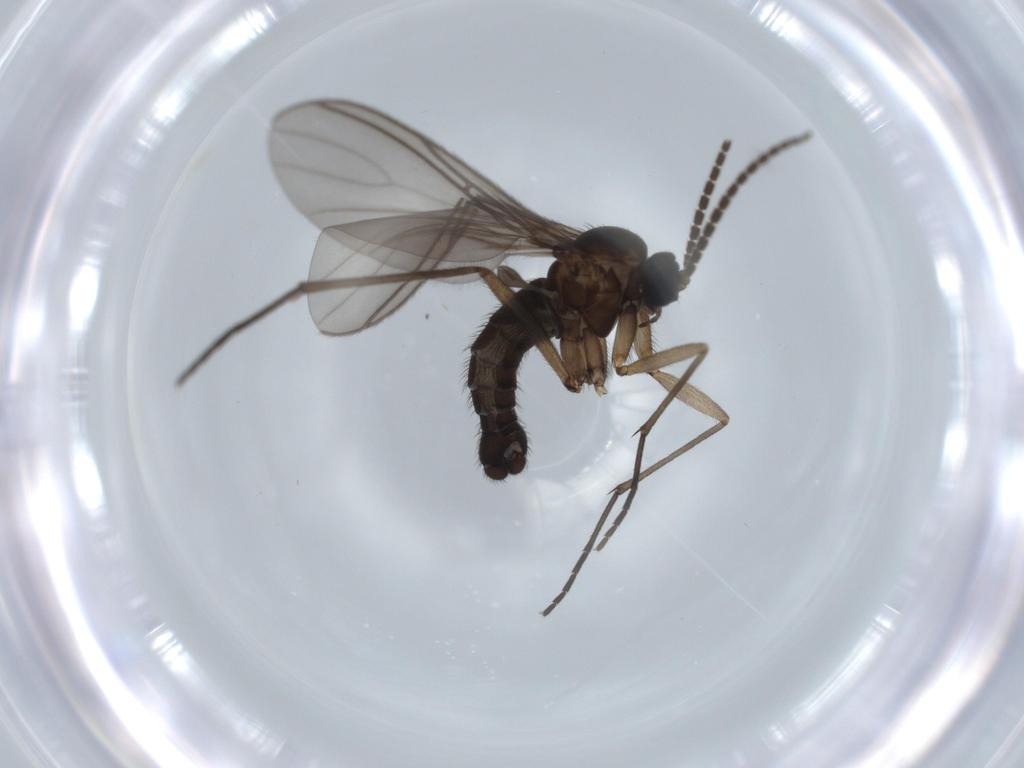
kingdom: Animalia
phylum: Arthropoda
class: Insecta
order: Diptera
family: Sciaridae
